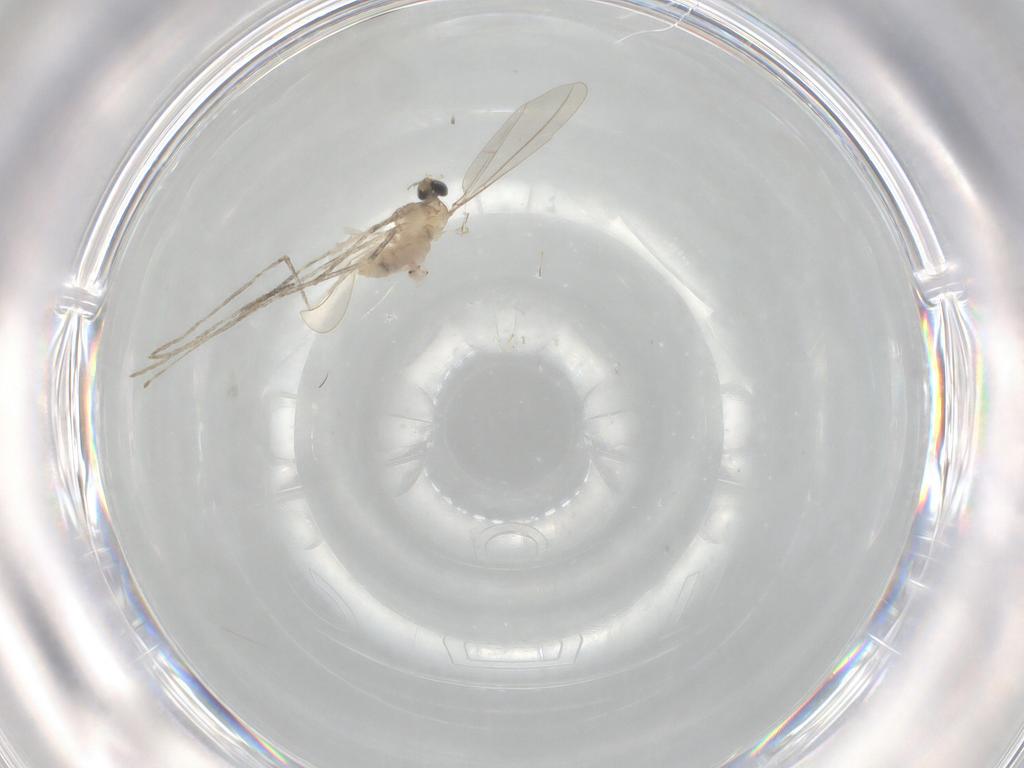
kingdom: Animalia
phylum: Arthropoda
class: Insecta
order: Diptera
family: Cecidomyiidae
